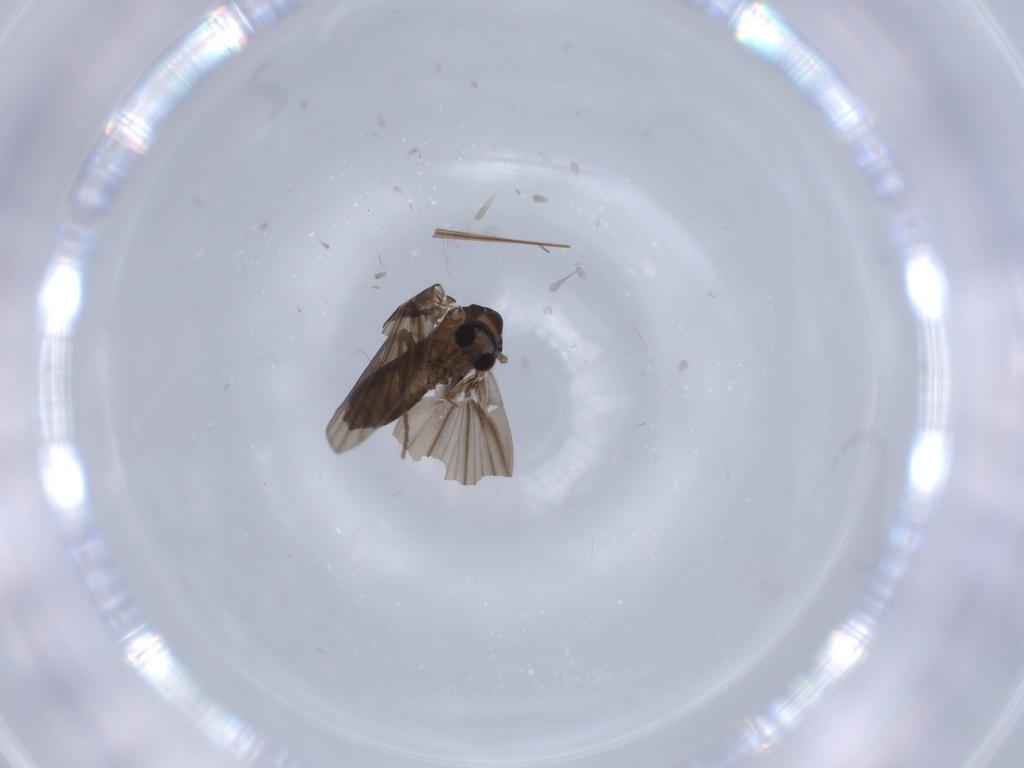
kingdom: Animalia
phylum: Arthropoda
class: Insecta
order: Diptera
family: Chloropidae
